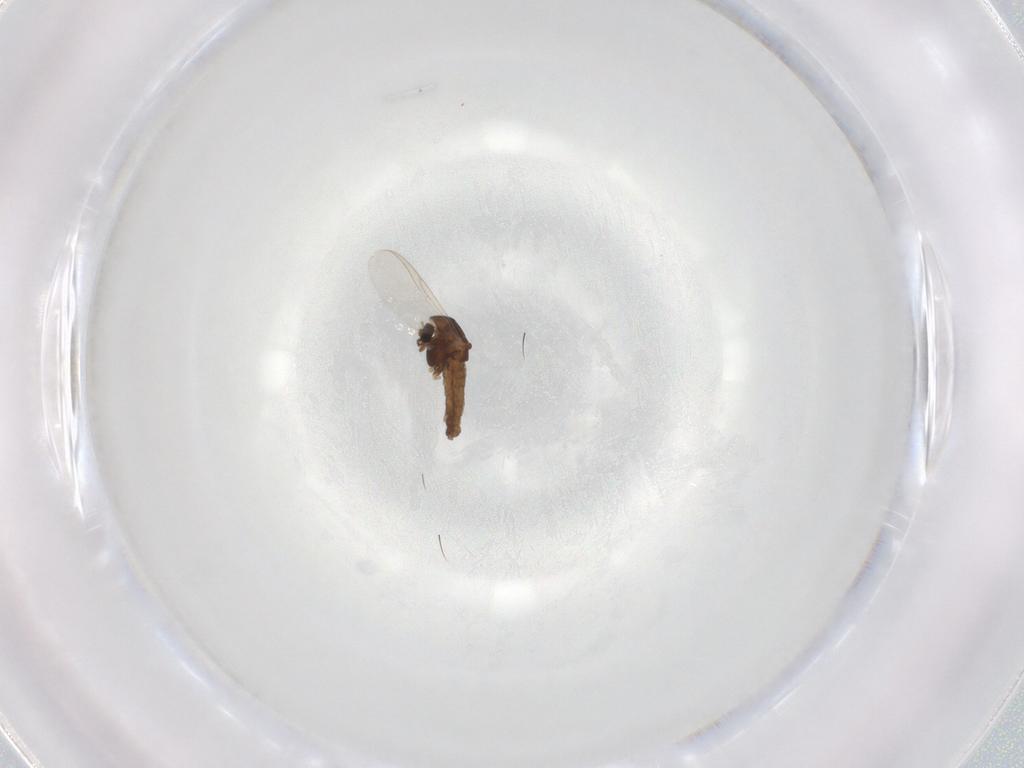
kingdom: Animalia
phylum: Arthropoda
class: Insecta
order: Diptera
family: Chironomidae
